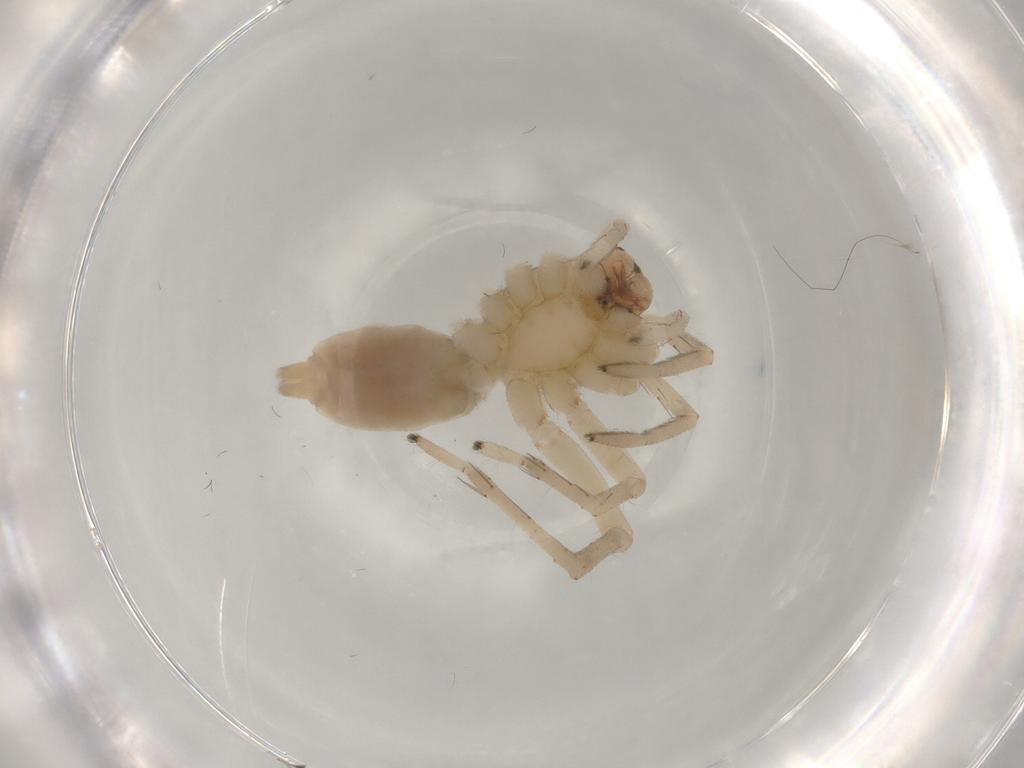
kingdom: Animalia
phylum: Arthropoda
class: Arachnida
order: Araneae
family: Anyphaenidae
